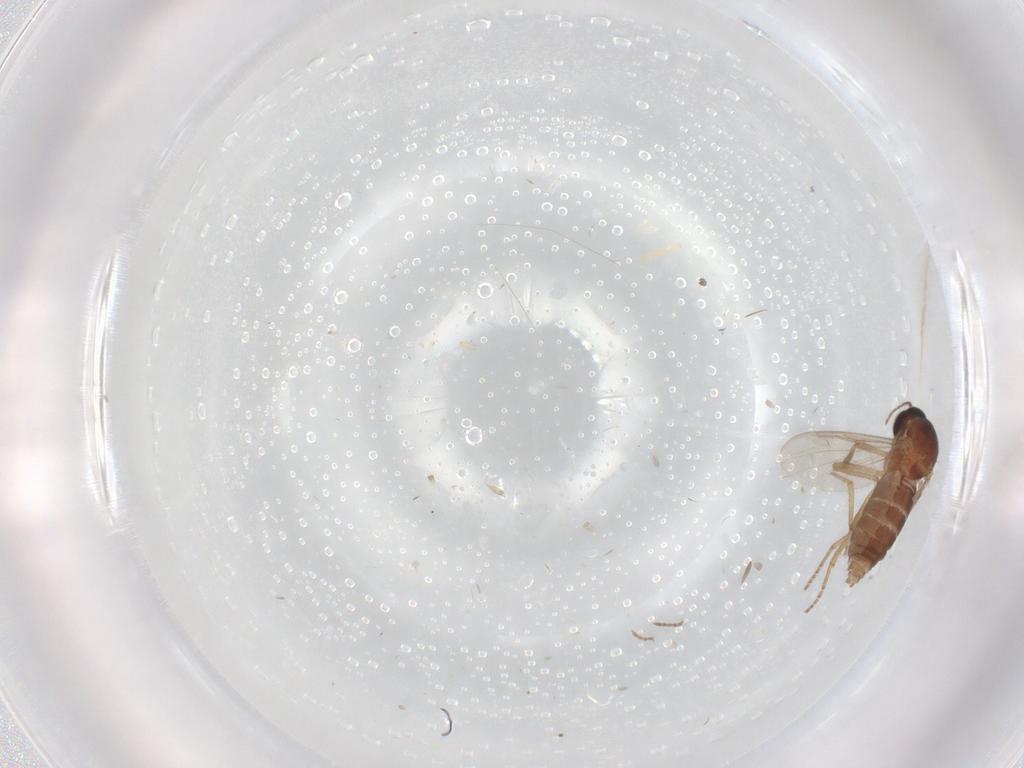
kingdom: Animalia
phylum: Arthropoda
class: Insecta
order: Diptera
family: Ceratopogonidae
